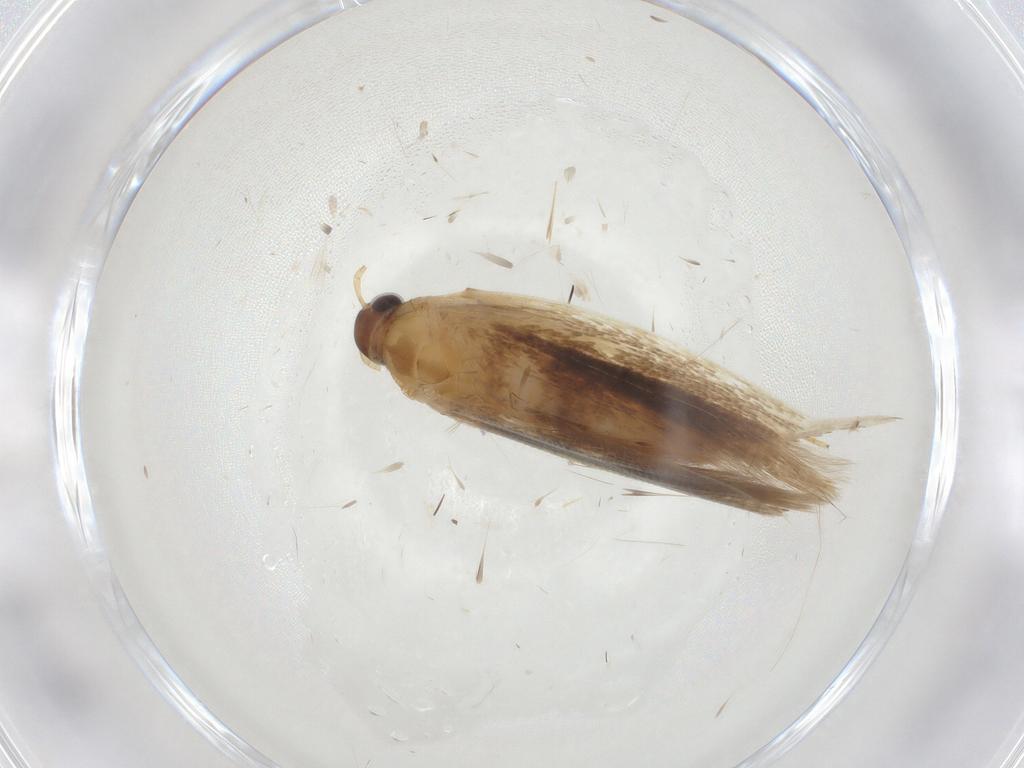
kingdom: Animalia
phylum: Arthropoda
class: Insecta
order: Lepidoptera
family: Gelechiidae
